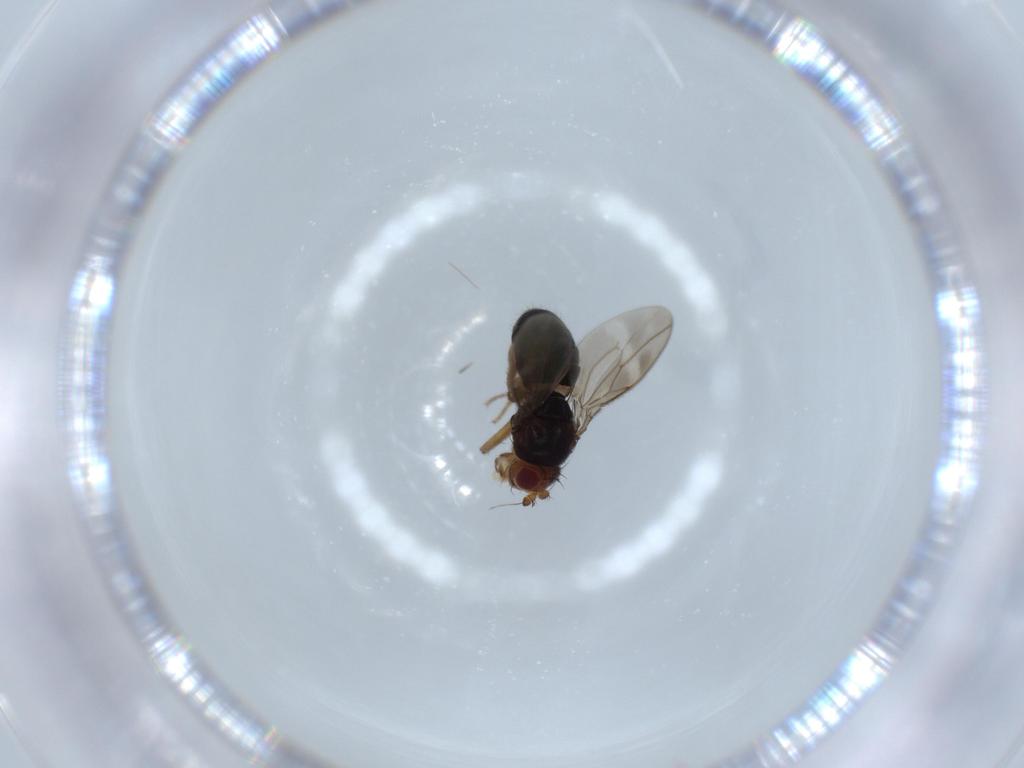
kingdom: Animalia
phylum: Arthropoda
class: Insecta
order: Diptera
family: Sphaeroceridae
